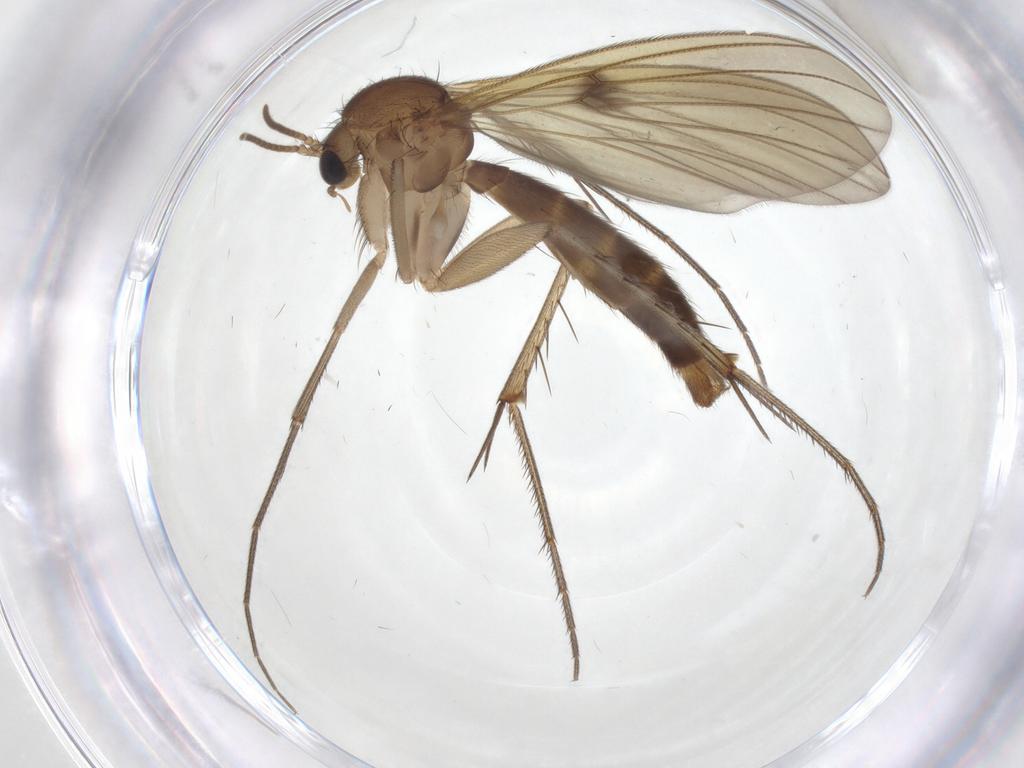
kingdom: Animalia
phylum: Arthropoda
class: Insecta
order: Diptera
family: Mycetophilidae
